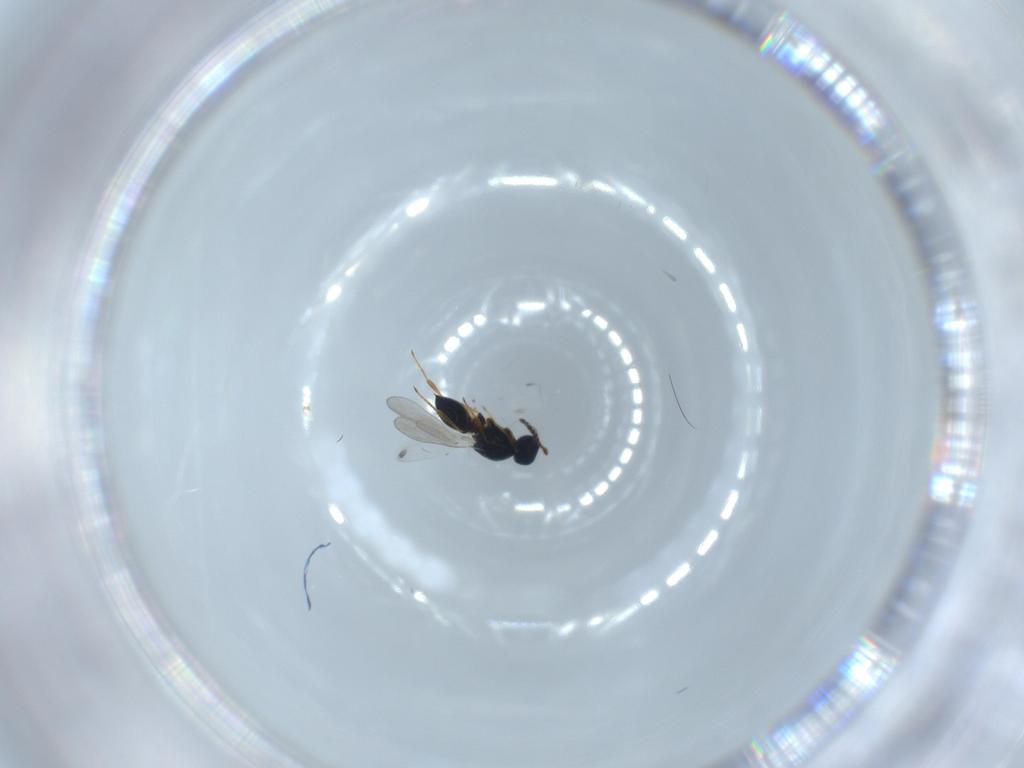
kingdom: Animalia
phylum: Arthropoda
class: Insecta
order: Hymenoptera
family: Platygastridae
